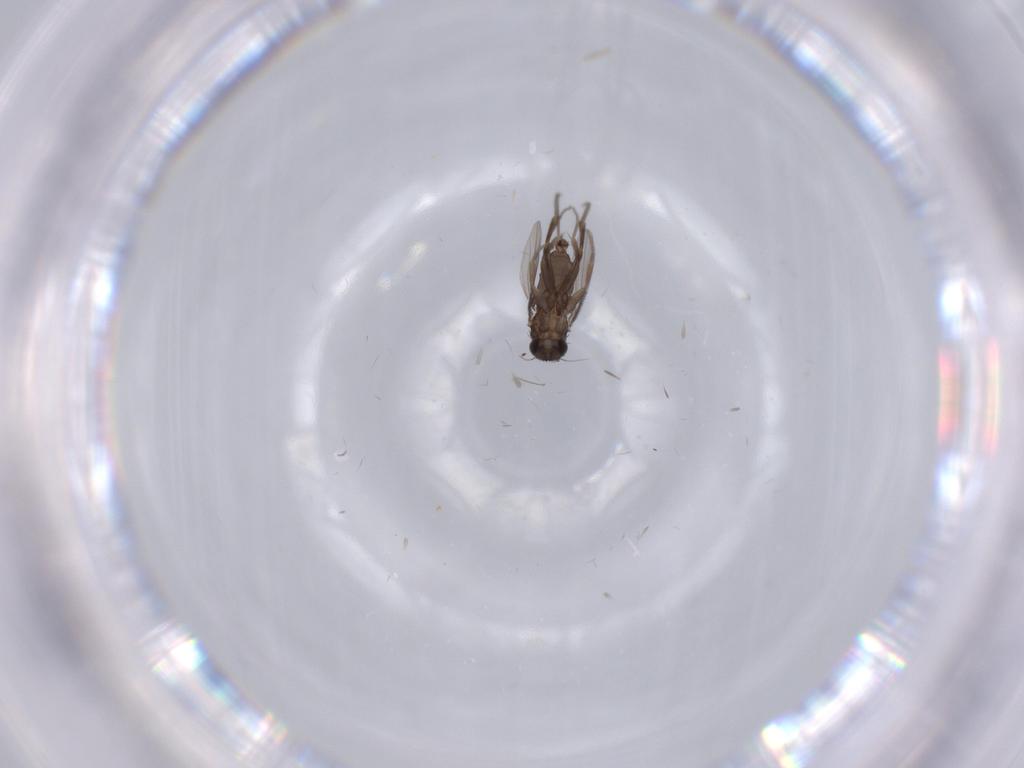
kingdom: Animalia
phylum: Arthropoda
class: Insecta
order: Diptera
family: Phoridae
